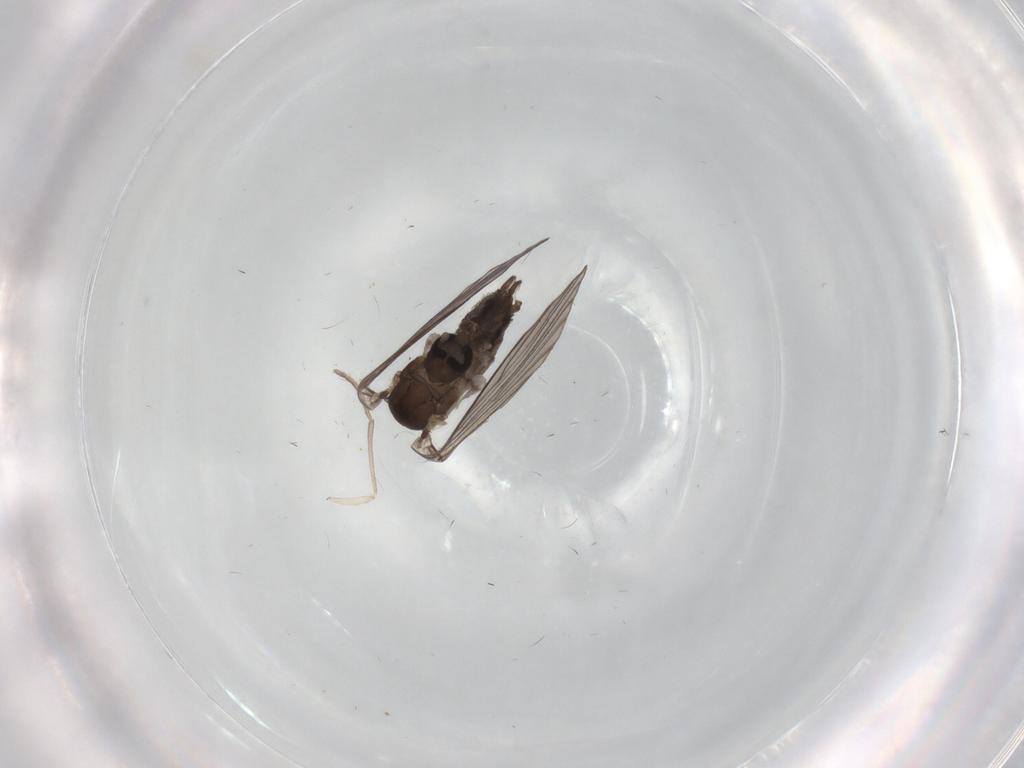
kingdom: Animalia
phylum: Arthropoda
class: Insecta
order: Diptera
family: Psychodidae
